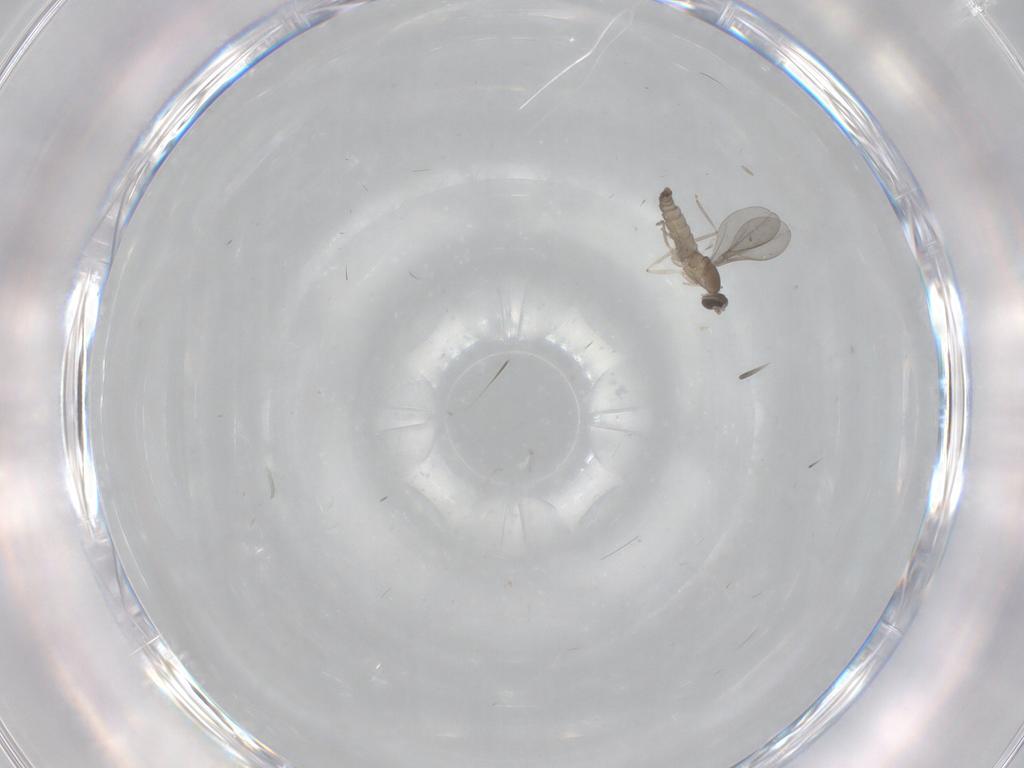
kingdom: Animalia
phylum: Arthropoda
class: Insecta
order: Diptera
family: Cecidomyiidae
